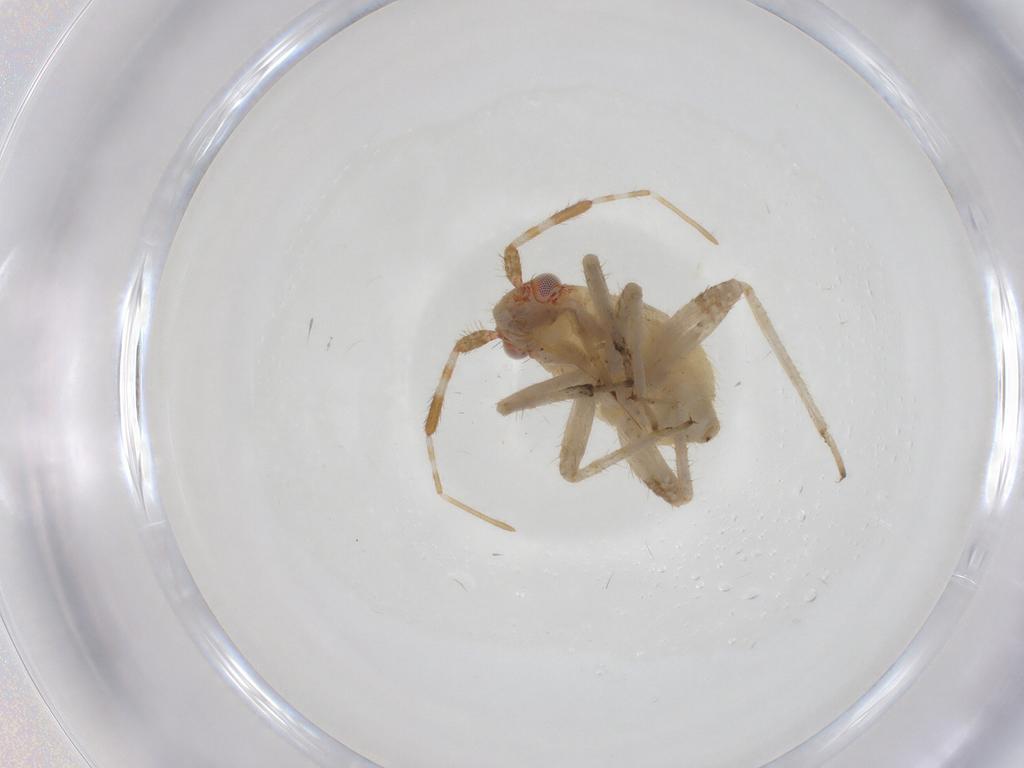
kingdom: Animalia
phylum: Arthropoda
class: Insecta
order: Hemiptera
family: Miridae
